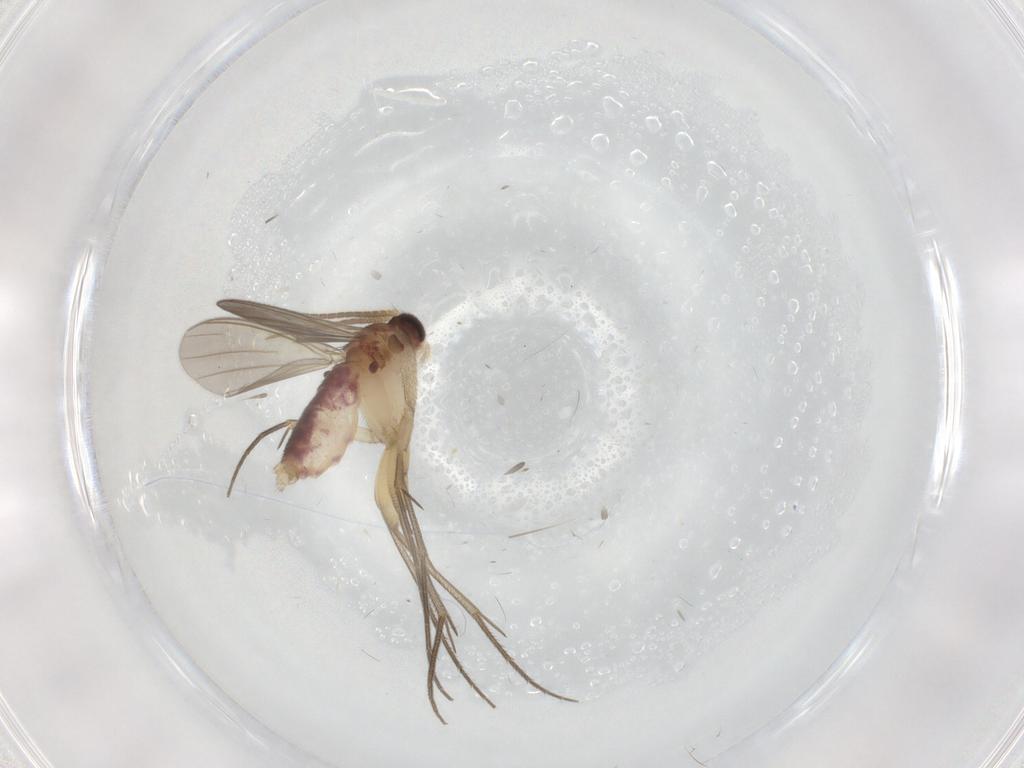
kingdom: Animalia
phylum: Arthropoda
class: Insecta
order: Diptera
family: Mycetophilidae
